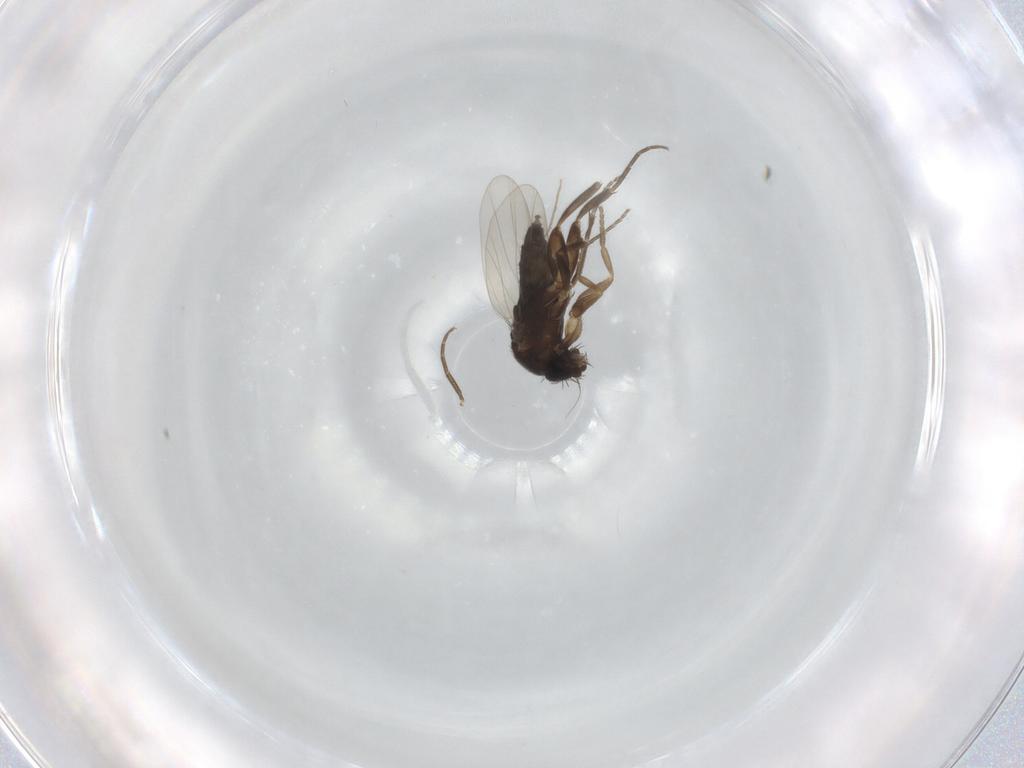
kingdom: Animalia
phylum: Arthropoda
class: Insecta
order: Diptera
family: Phoridae
